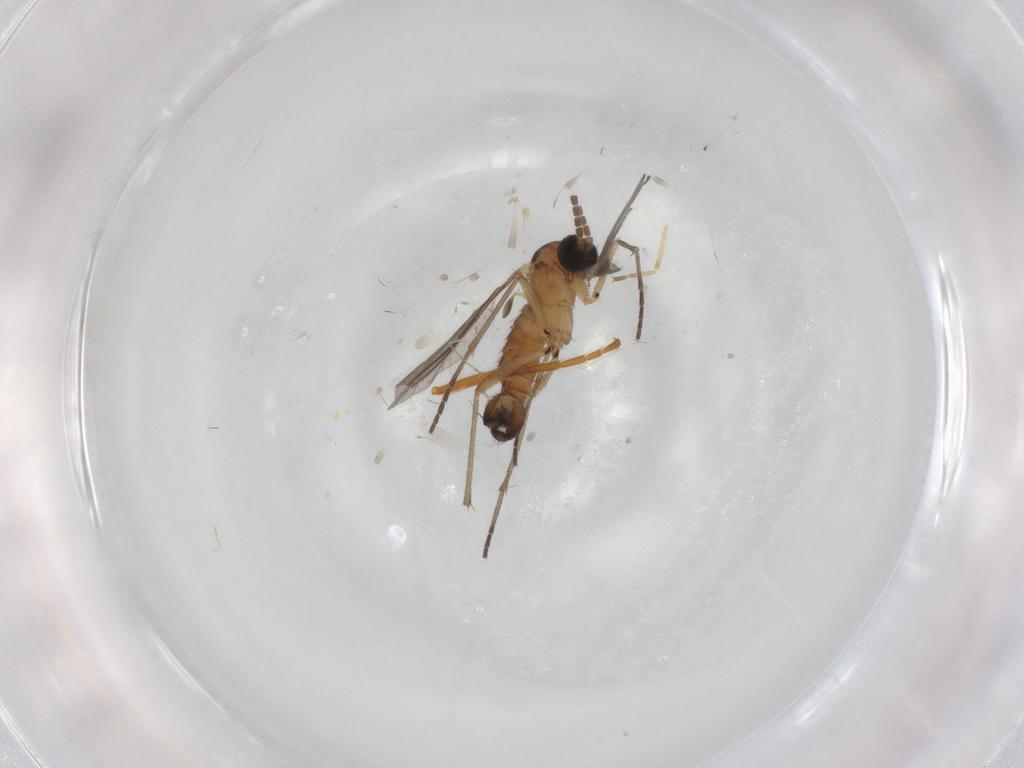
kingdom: Animalia
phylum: Arthropoda
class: Insecta
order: Diptera
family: Sciaridae
